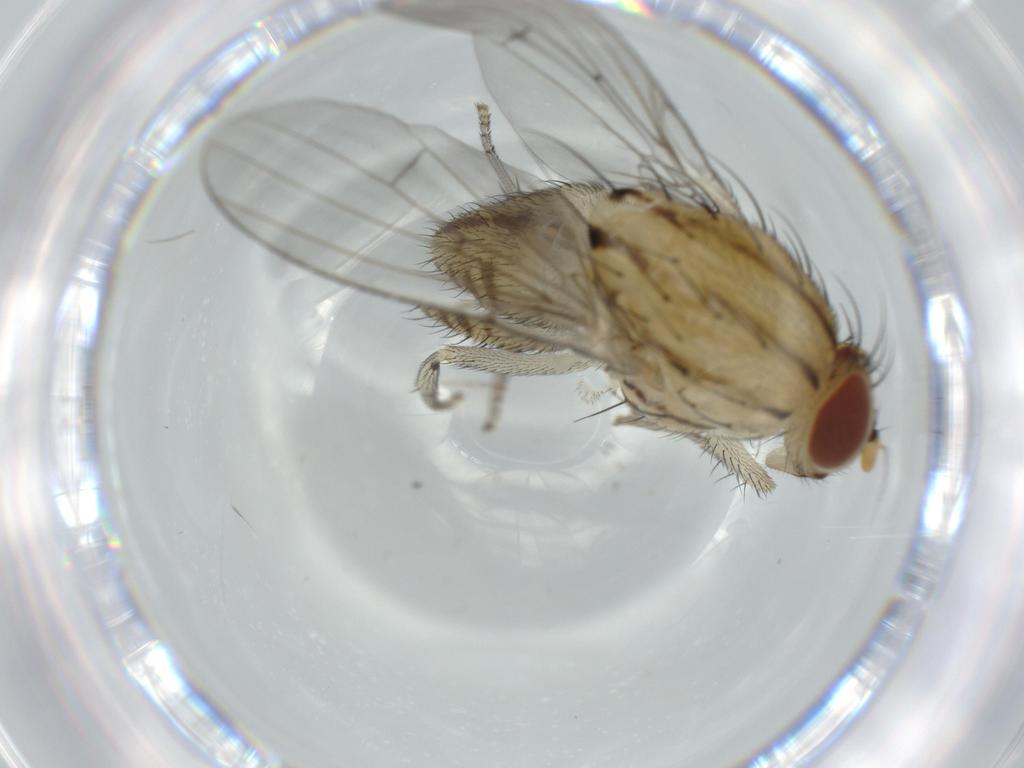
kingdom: Animalia
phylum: Arthropoda
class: Insecta
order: Diptera
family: Lauxaniidae
